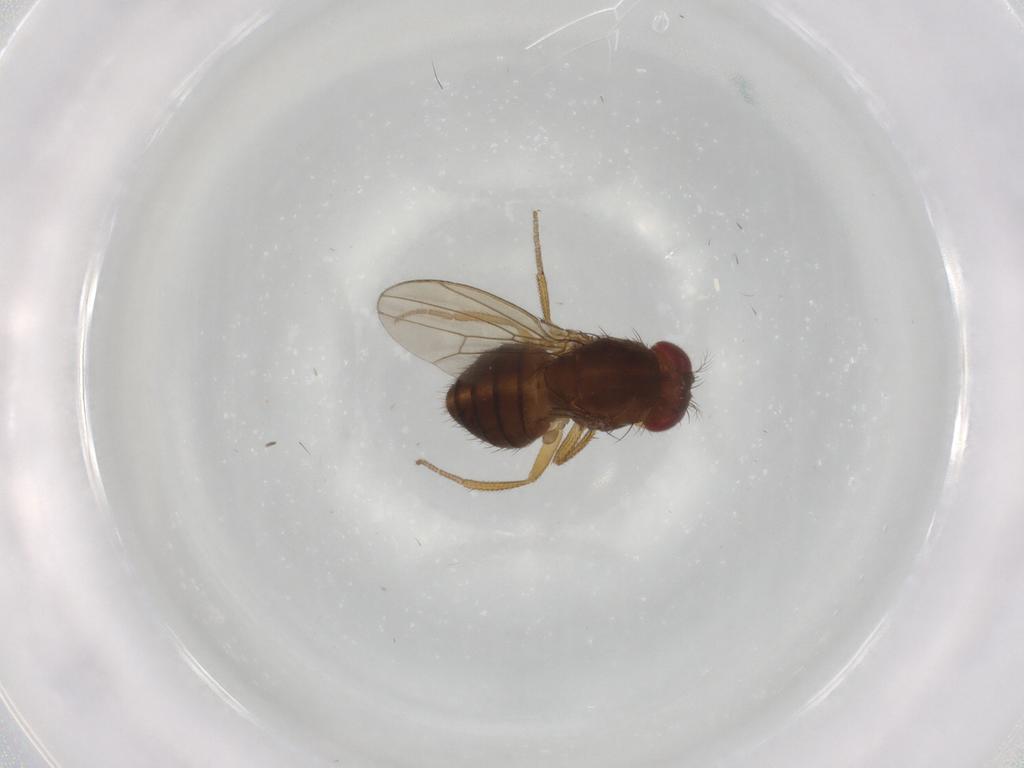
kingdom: Animalia
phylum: Arthropoda
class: Insecta
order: Diptera
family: Drosophilidae
